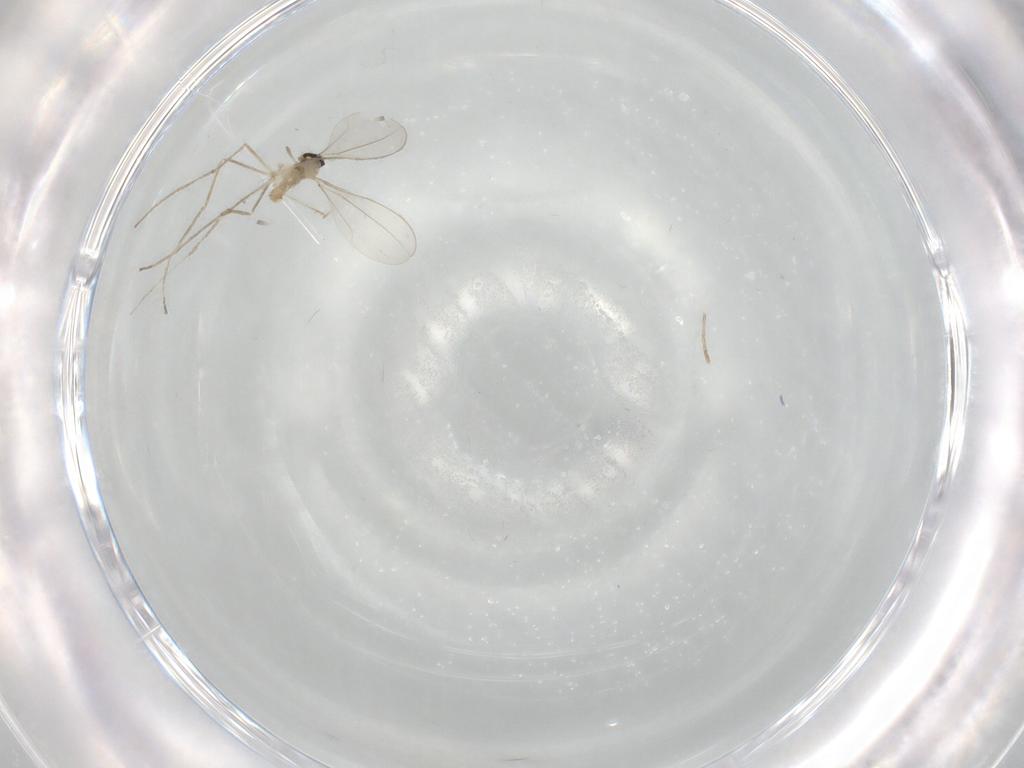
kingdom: Animalia
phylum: Arthropoda
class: Insecta
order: Diptera
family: Cecidomyiidae
